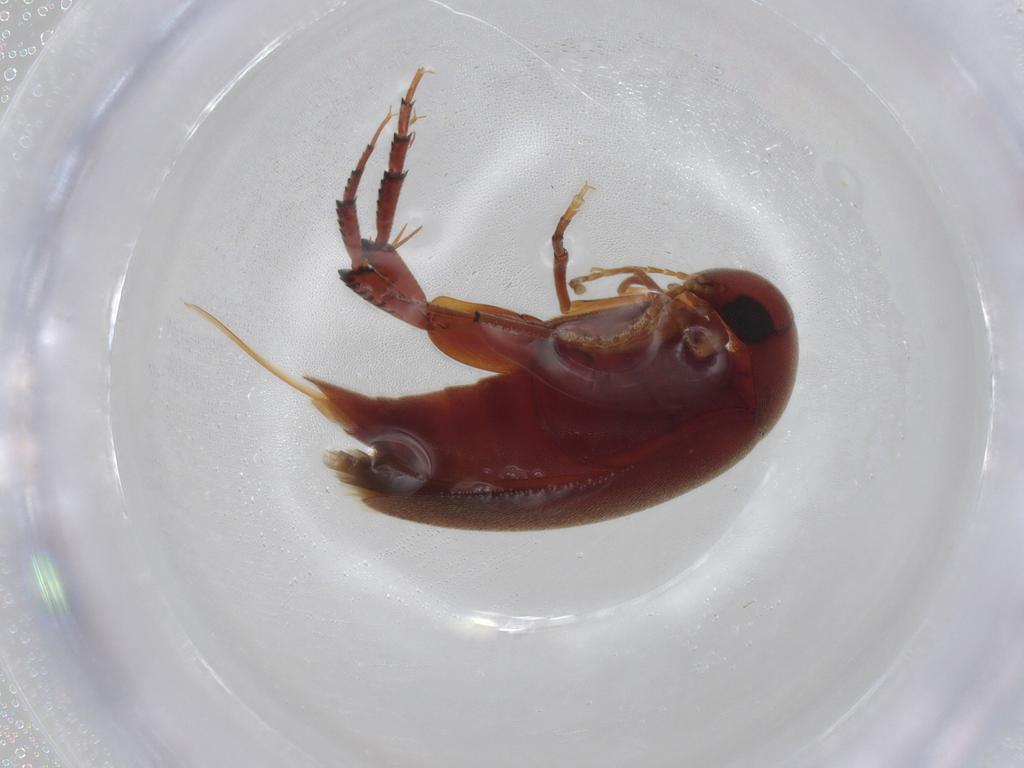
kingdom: Animalia
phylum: Arthropoda
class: Insecta
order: Coleoptera
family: Mordellidae
